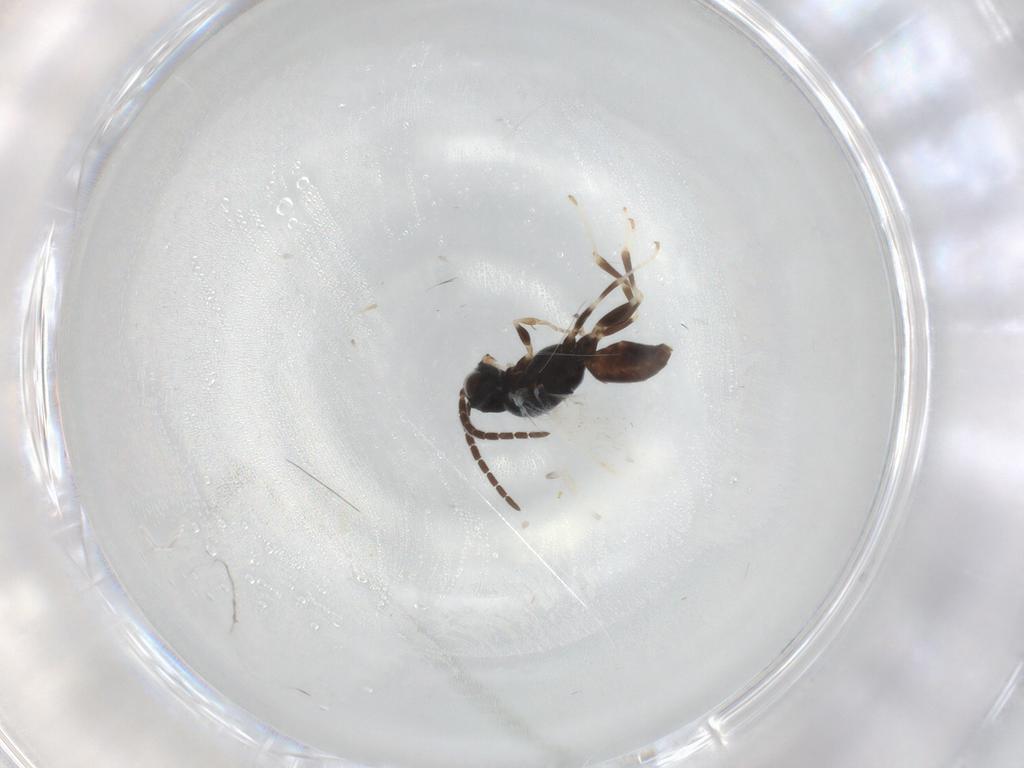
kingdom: Animalia
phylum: Arthropoda
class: Insecta
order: Hymenoptera
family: Dryinidae
